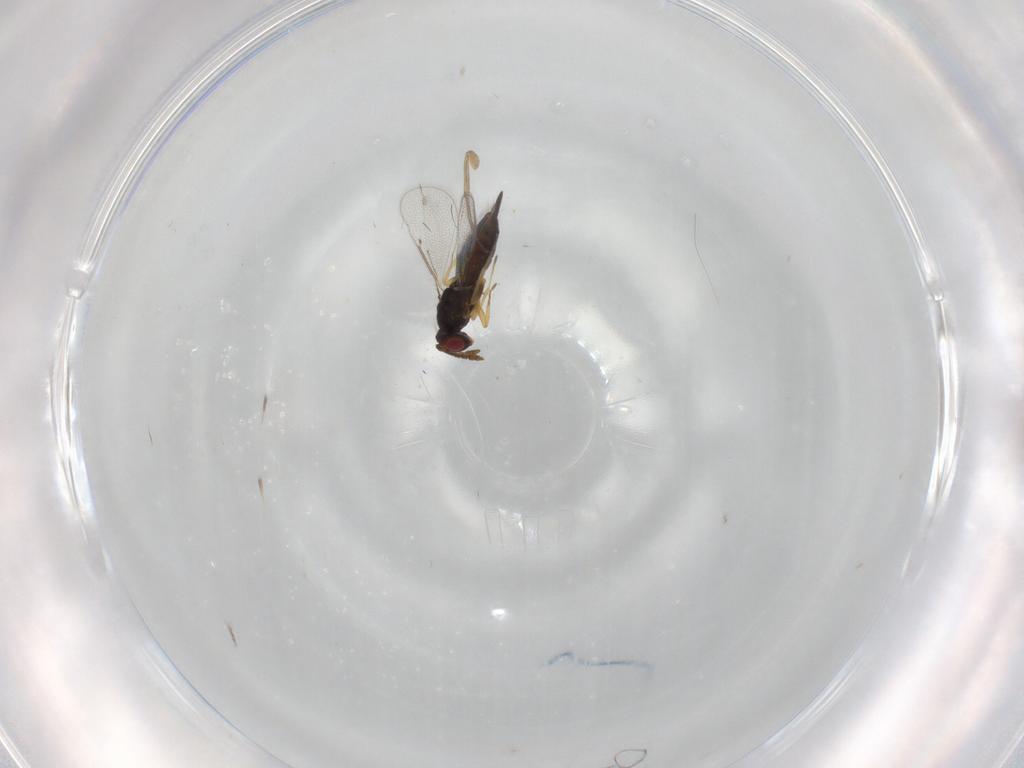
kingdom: Animalia
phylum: Arthropoda
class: Insecta
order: Hymenoptera
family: Eulophidae
